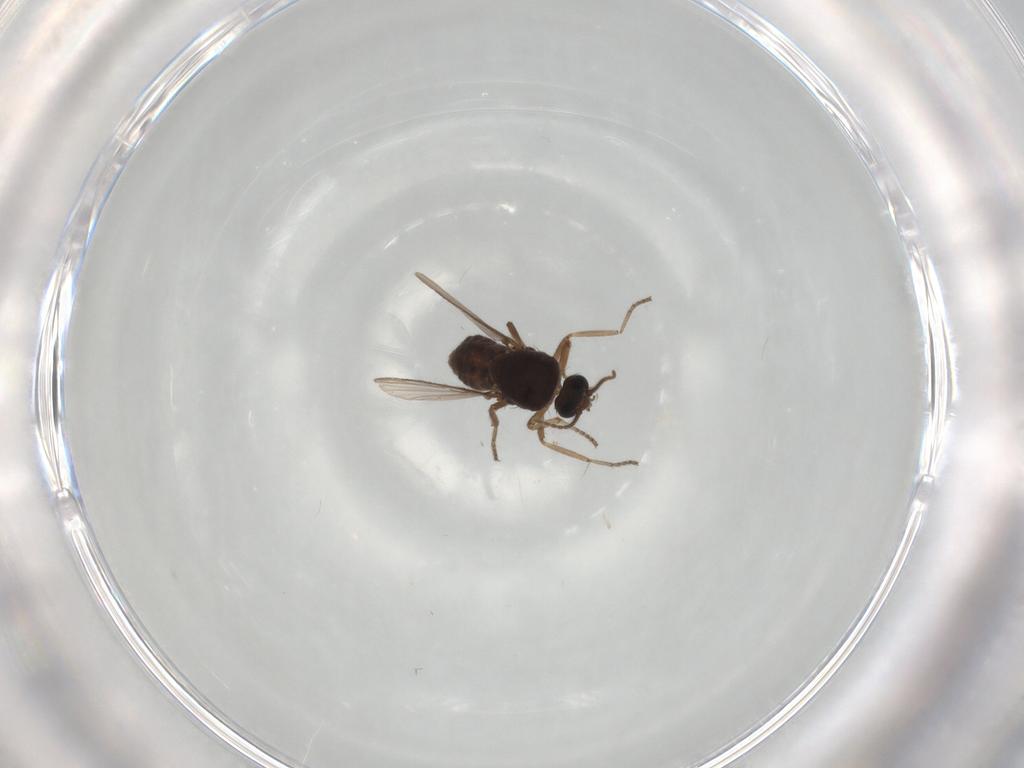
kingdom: Animalia
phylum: Arthropoda
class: Insecta
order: Diptera
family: Ceratopogonidae
